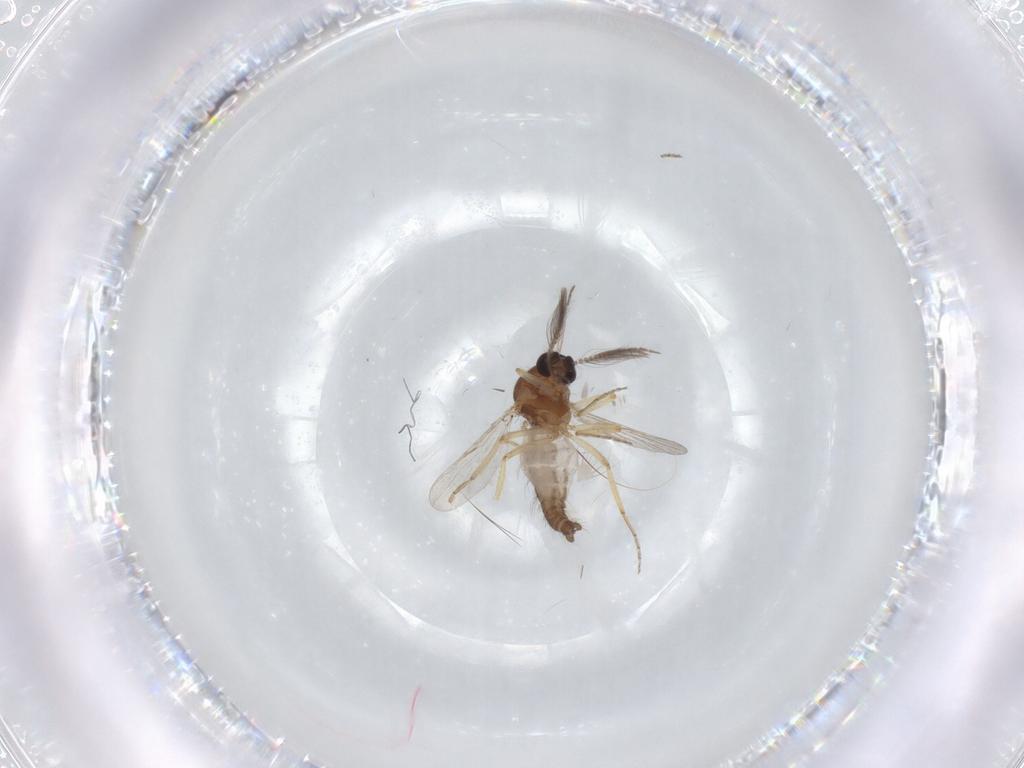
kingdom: Animalia
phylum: Arthropoda
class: Insecta
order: Diptera
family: Ceratopogonidae
